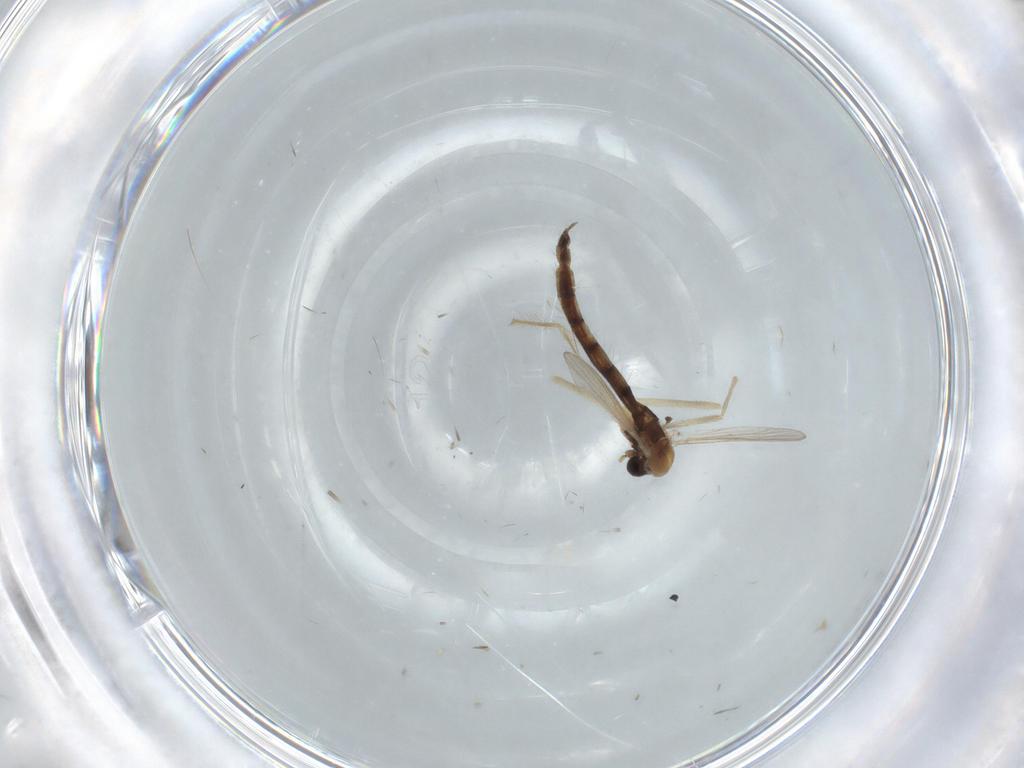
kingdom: Animalia
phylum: Arthropoda
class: Insecta
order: Diptera
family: Chironomidae
